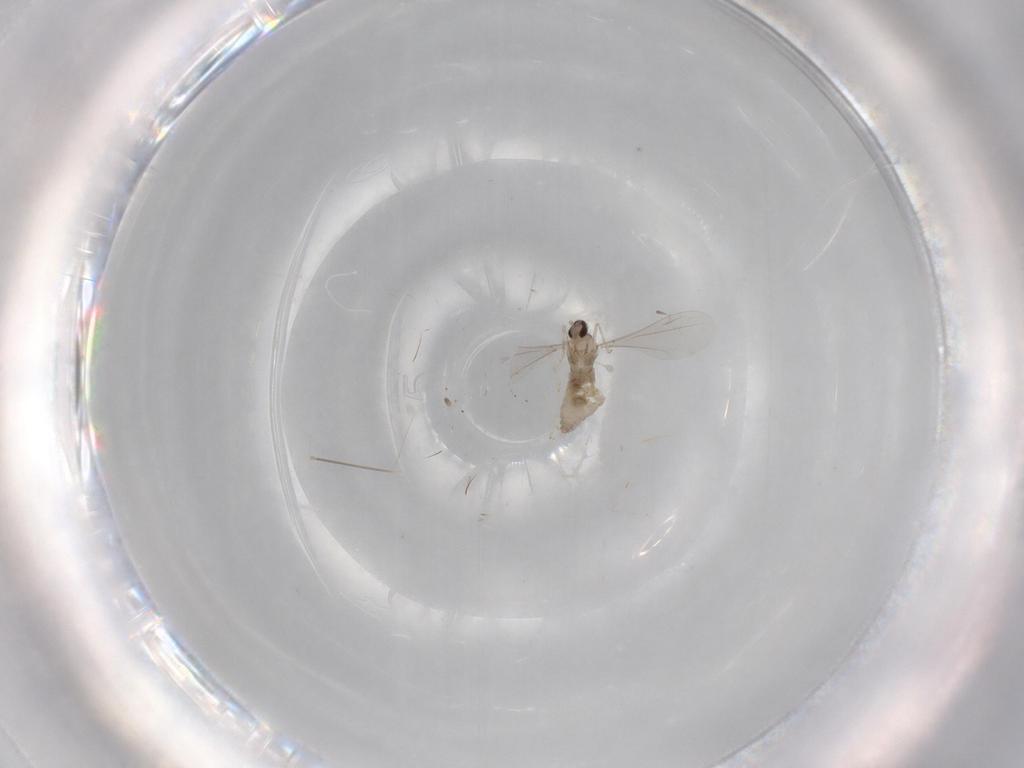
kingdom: Animalia
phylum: Arthropoda
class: Insecta
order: Diptera
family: Cecidomyiidae
